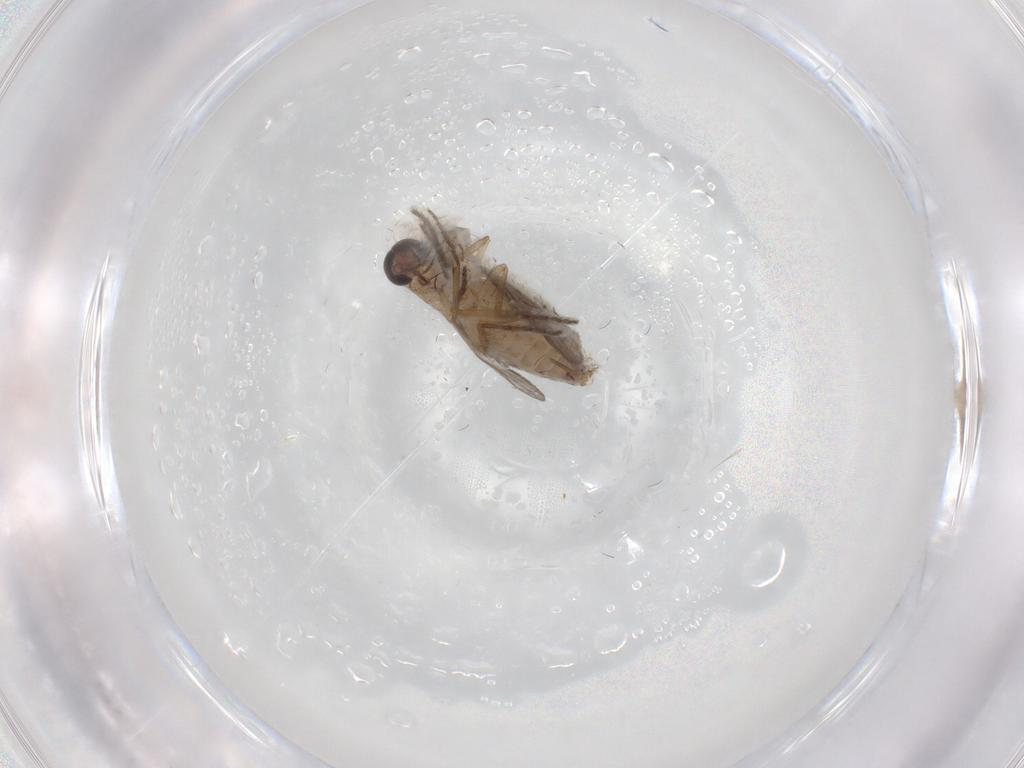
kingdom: Animalia
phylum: Arthropoda
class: Insecta
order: Diptera
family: Ceratopogonidae
